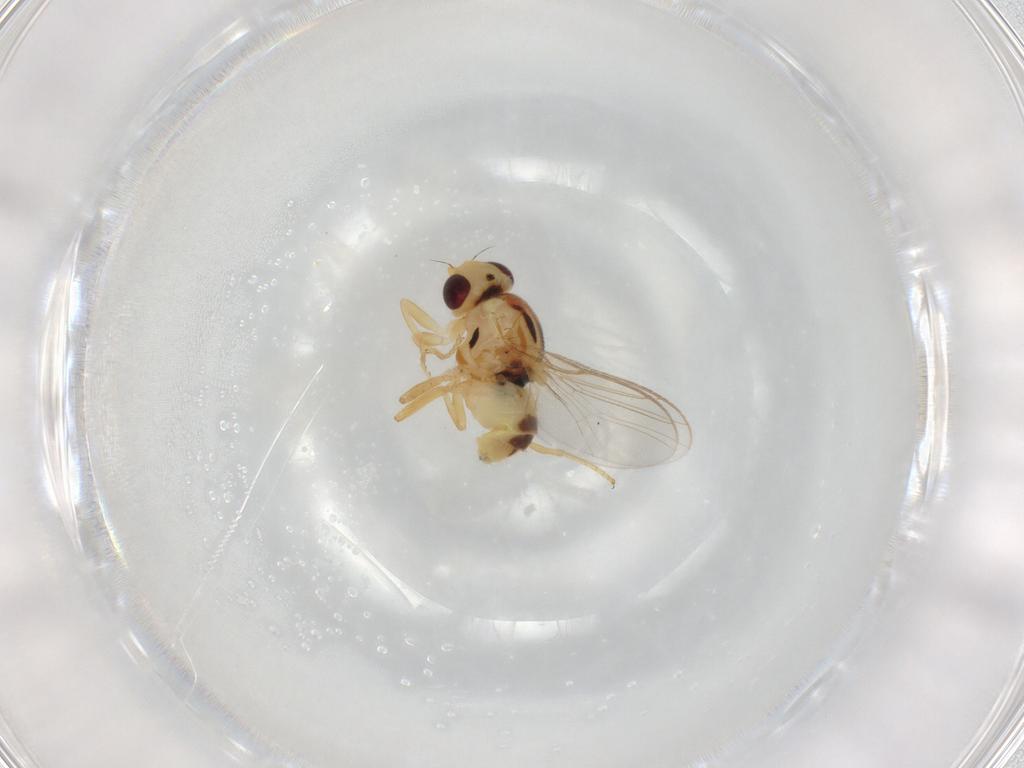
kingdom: Animalia
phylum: Arthropoda
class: Insecta
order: Diptera
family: Chloropidae
